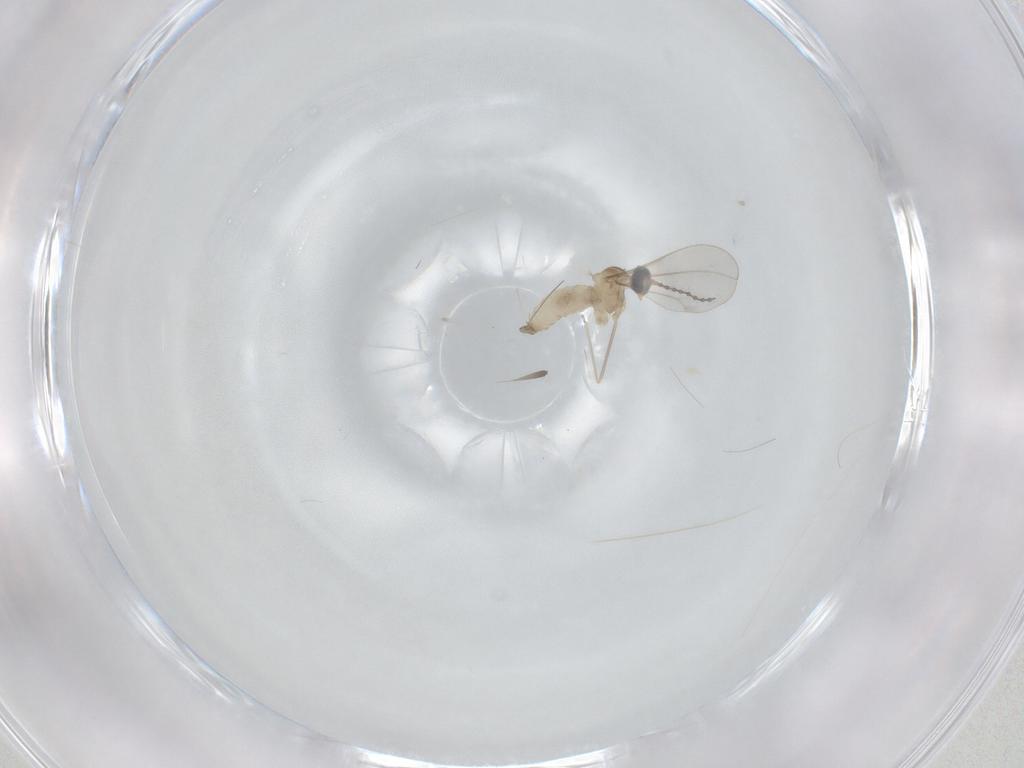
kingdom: Animalia
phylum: Arthropoda
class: Insecta
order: Diptera
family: Cecidomyiidae
